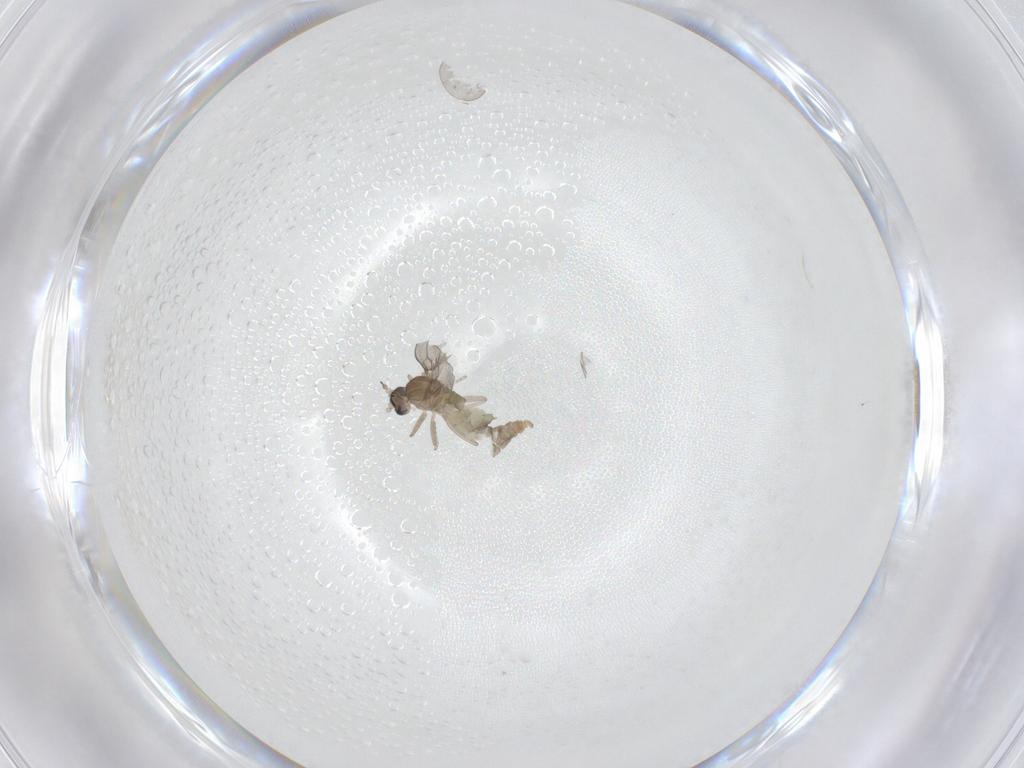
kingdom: Animalia
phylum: Arthropoda
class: Insecta
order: Diptera
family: Cecidomyiidae
